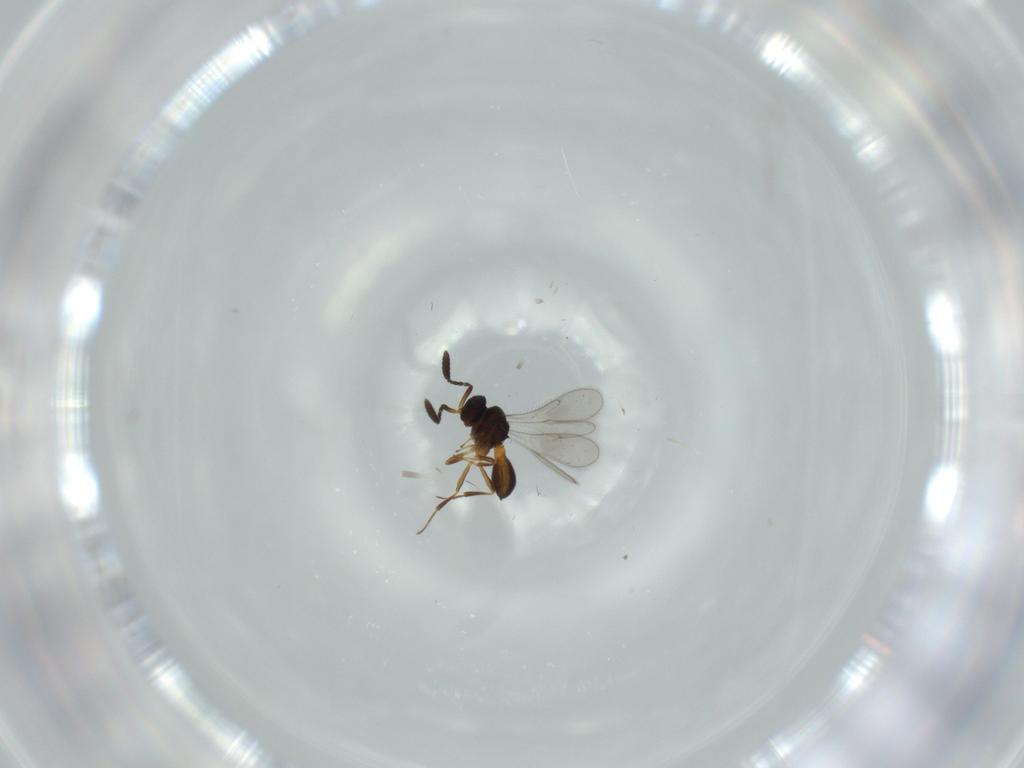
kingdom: Animalia
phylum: Arthropoda
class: Insecta
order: Hymenoptera
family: Scelionidae
